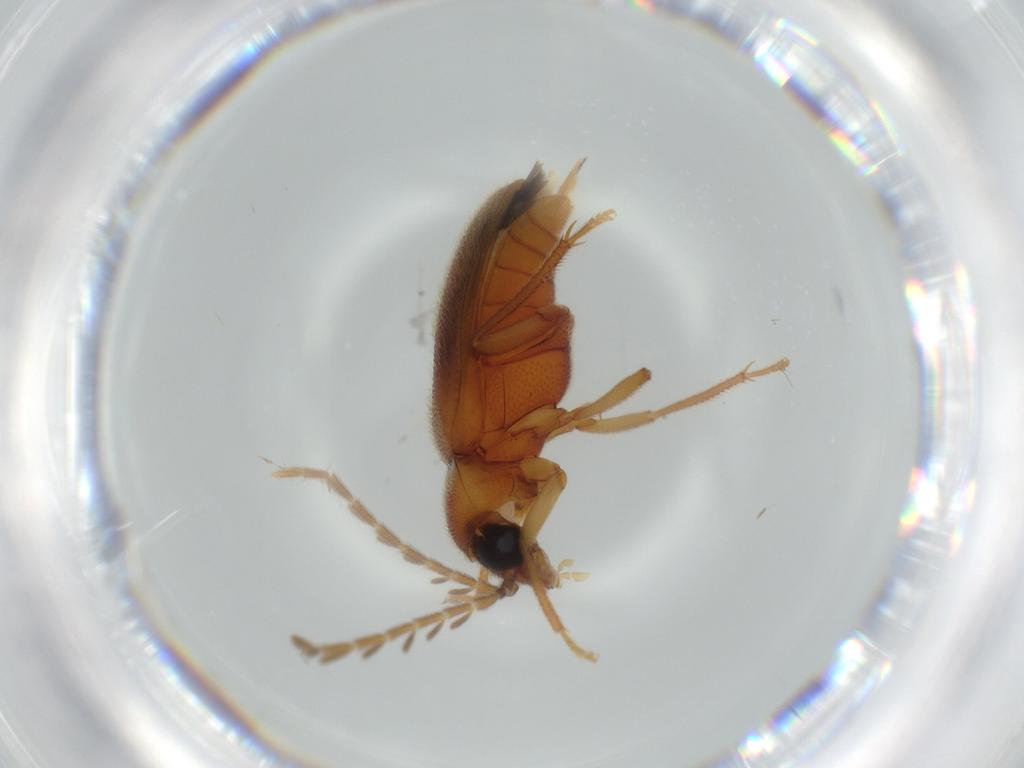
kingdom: Animalia
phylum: Arthropoda
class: Insecta
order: Coleoptera
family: Ptilodactylidae
